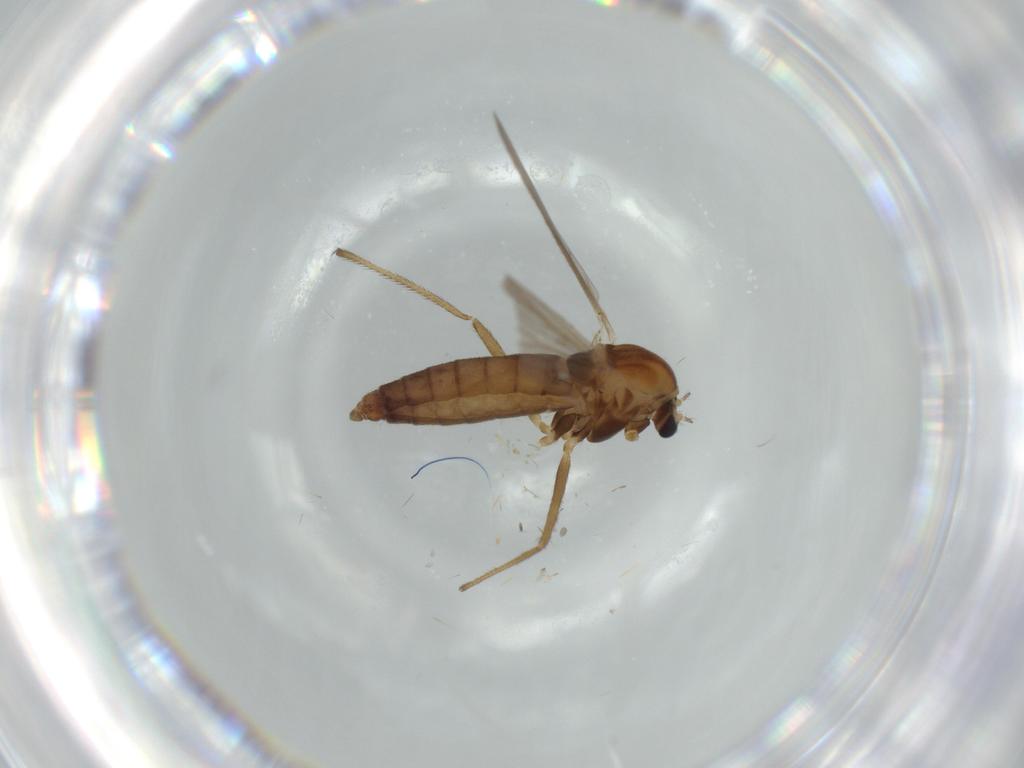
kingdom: Animalia
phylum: Arthropoda
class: Insecta
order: Diptera
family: Chironomidae
